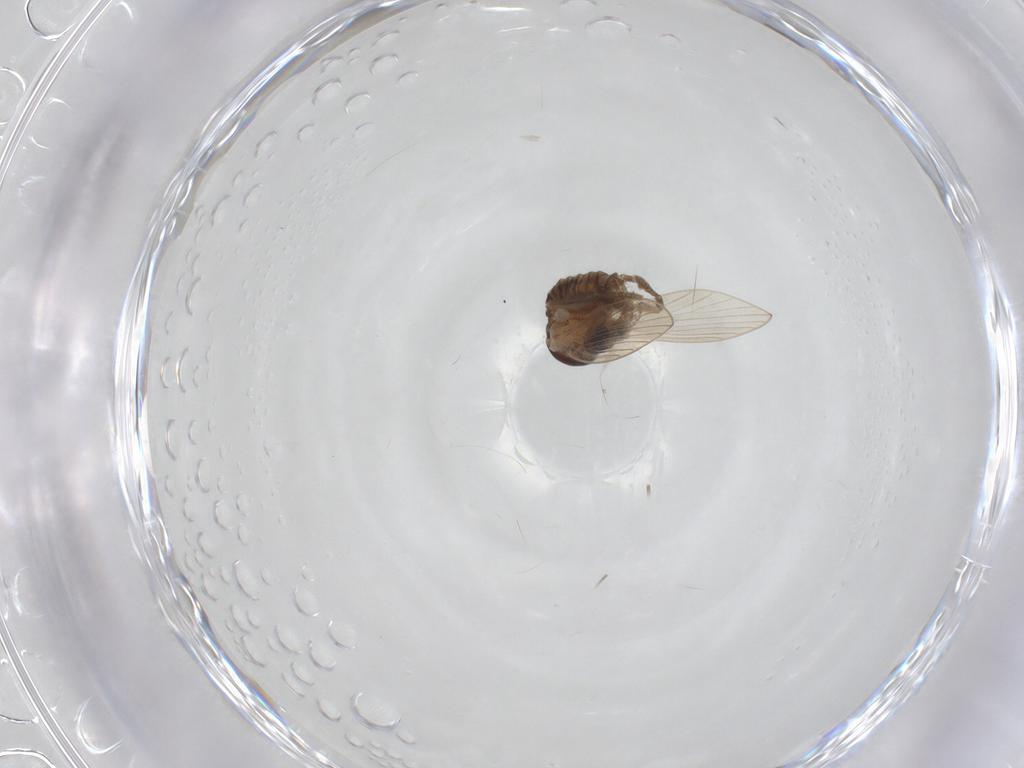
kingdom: Animalia
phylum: Arthropoda
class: Insecta
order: Diptera
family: Psychodidae
